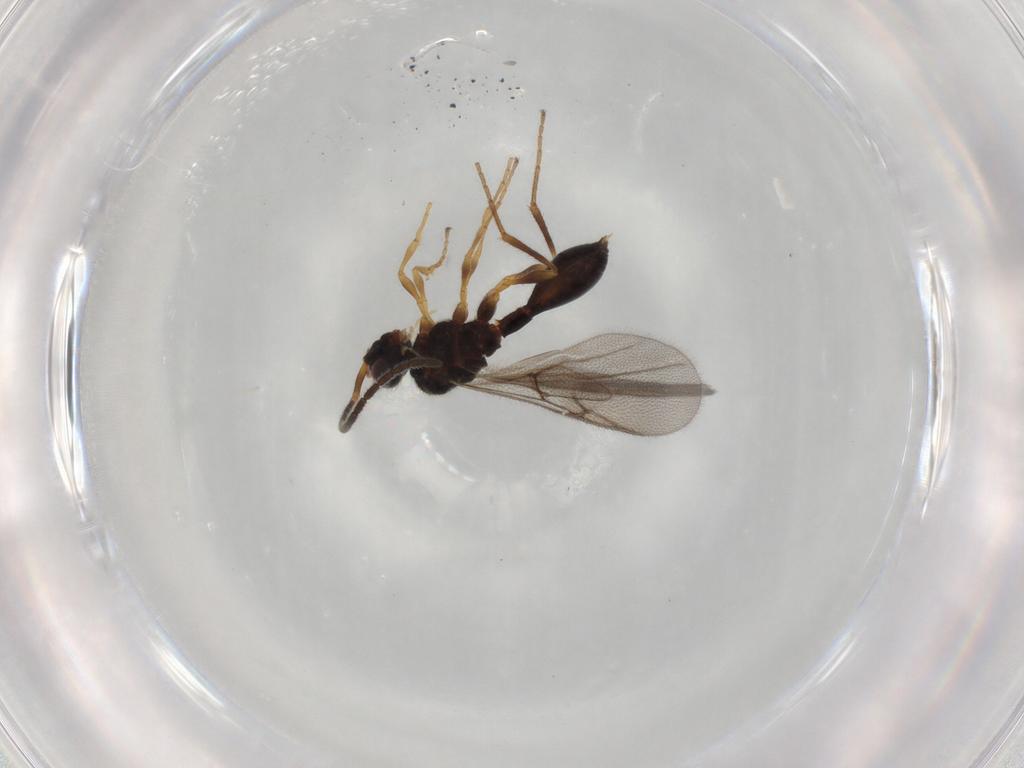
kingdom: Animalia
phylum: Arthropoda
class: Insecta
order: Hymenoptera
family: Diapriidae
